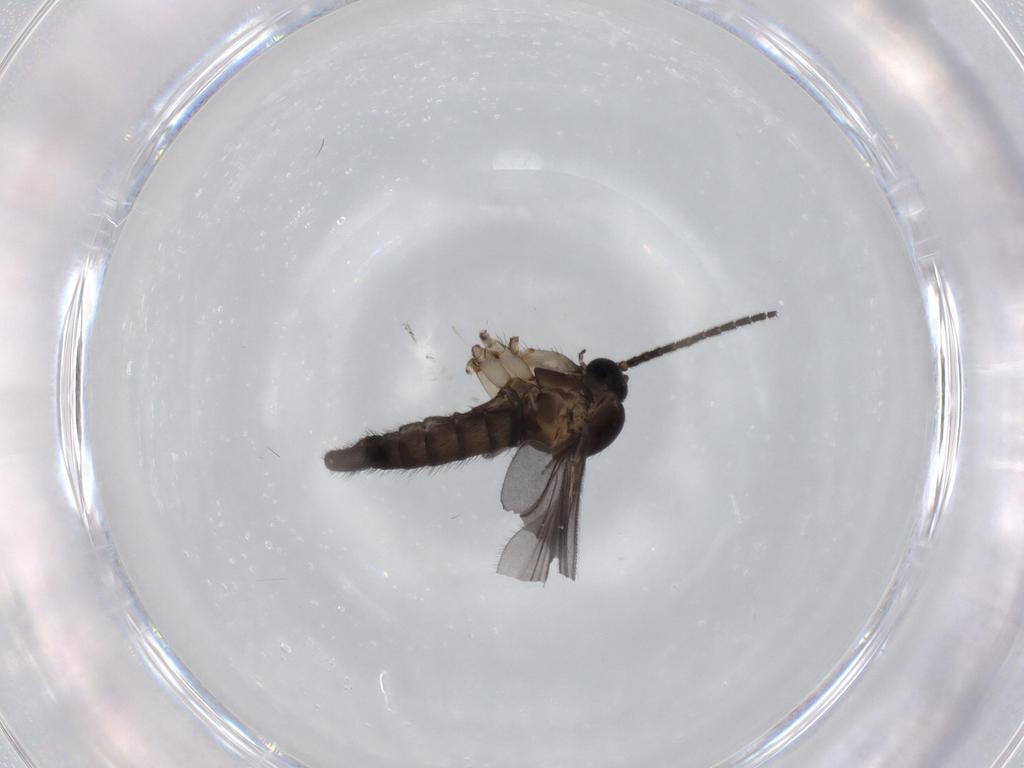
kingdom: Animalia
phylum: Arthropoda
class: Insecta
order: Diptera
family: Sciaridae
